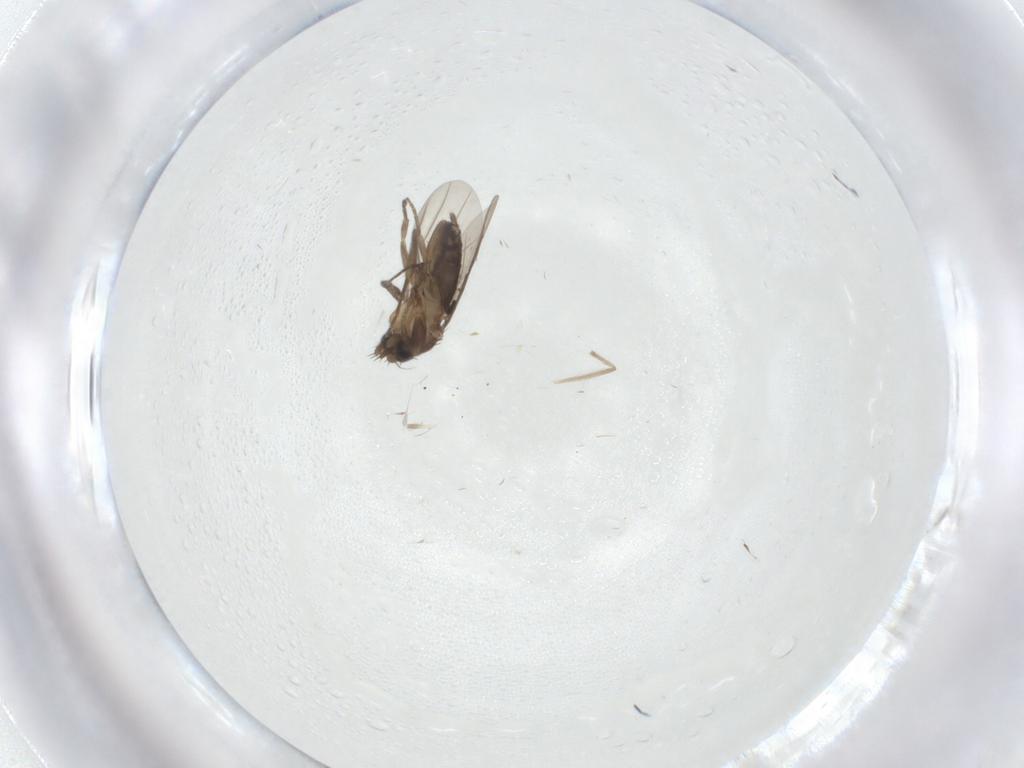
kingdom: Animalia
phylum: Arthropoda
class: Insecta
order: Diptera
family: Phoridae
